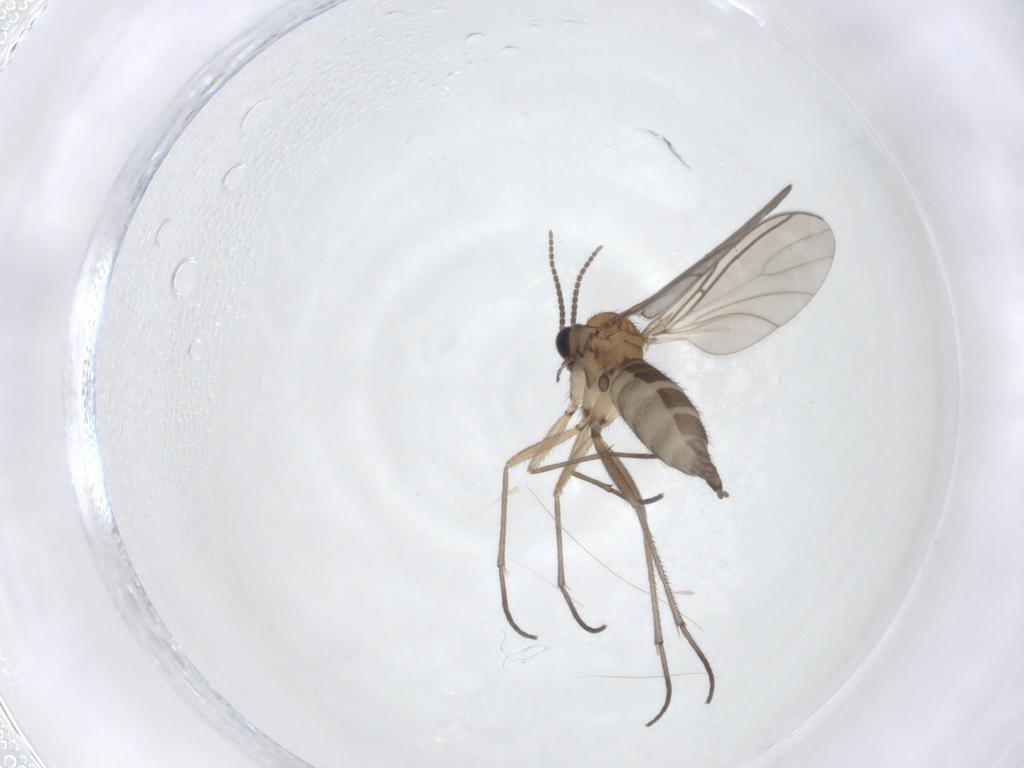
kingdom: Animalia
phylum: Arthropoda
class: Insecta
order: Diptera
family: Sciaridae
